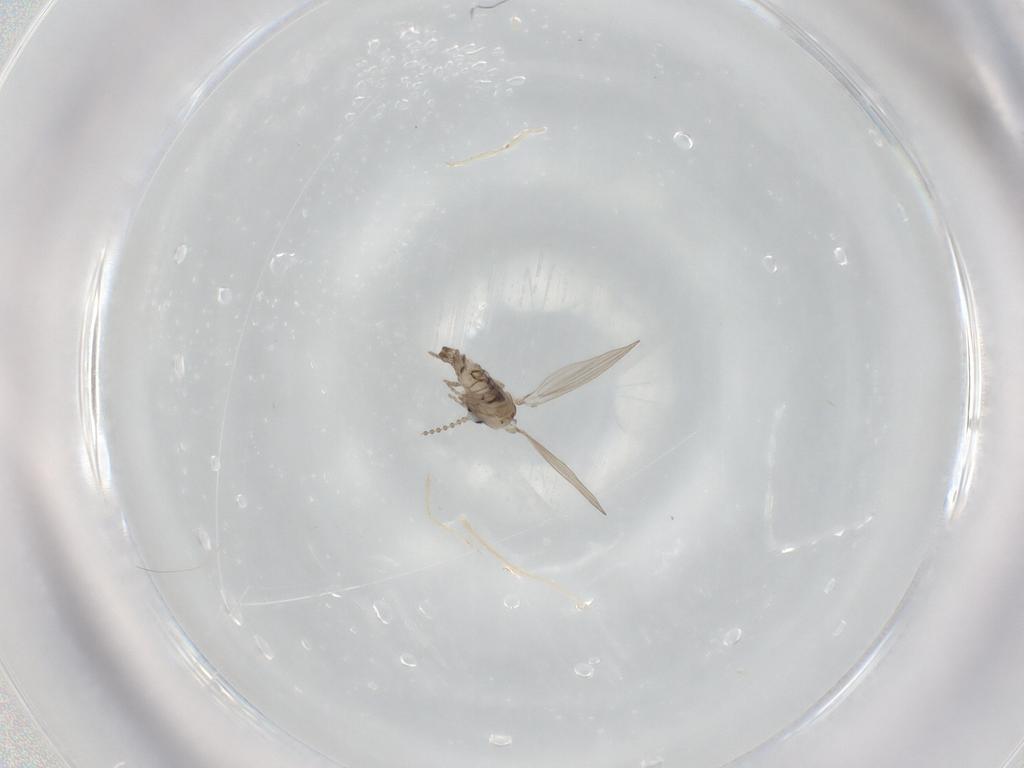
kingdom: Animalia
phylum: Arthropoda
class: Insecta
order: Diptera
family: Psychodidae
